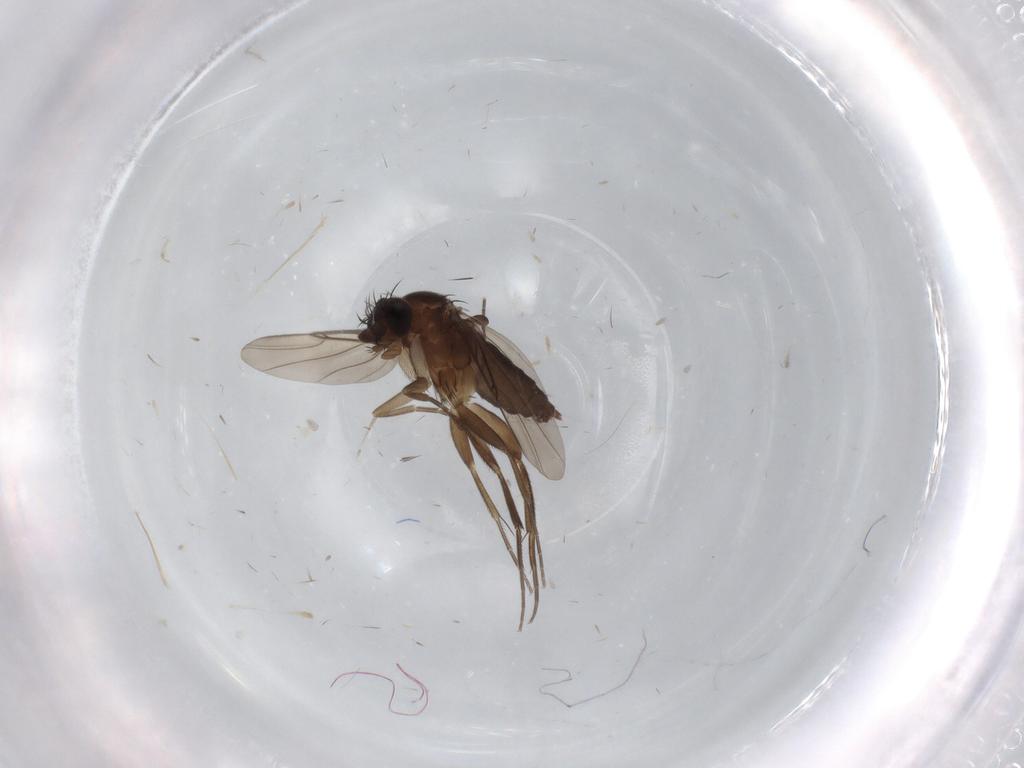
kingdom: Animalia
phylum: Arthropoda
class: Insecta
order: Diptera
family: Phoridae
